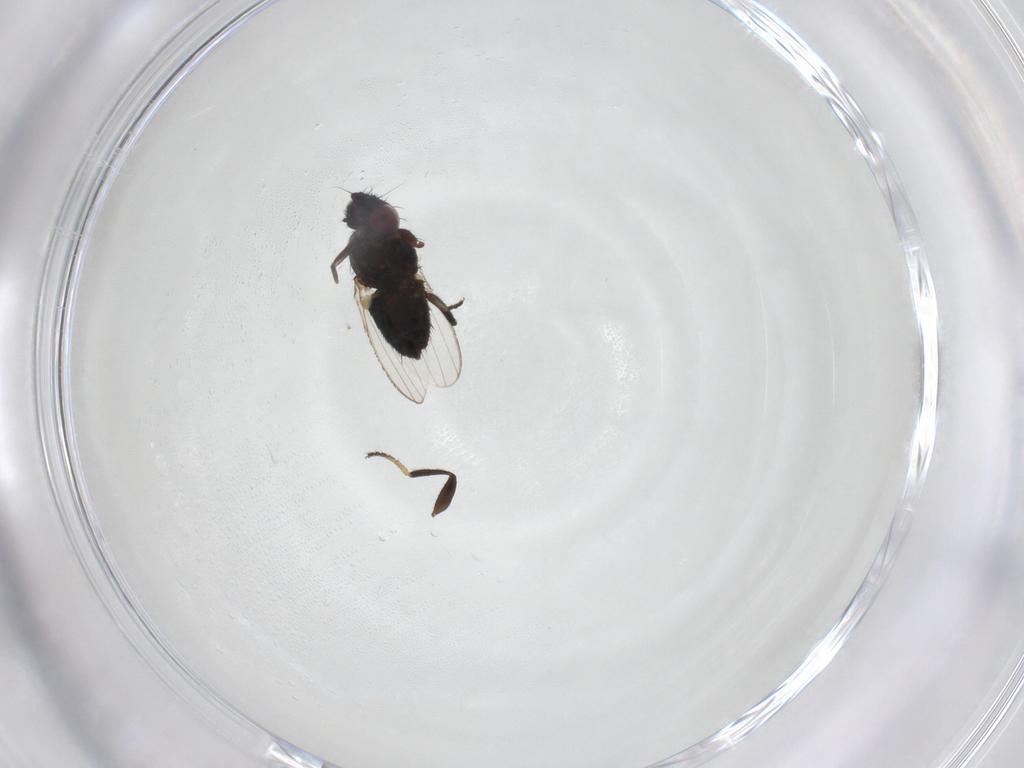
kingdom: Animalia
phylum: Arthropoda
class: Insecta
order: Diptera
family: Milichiidae
